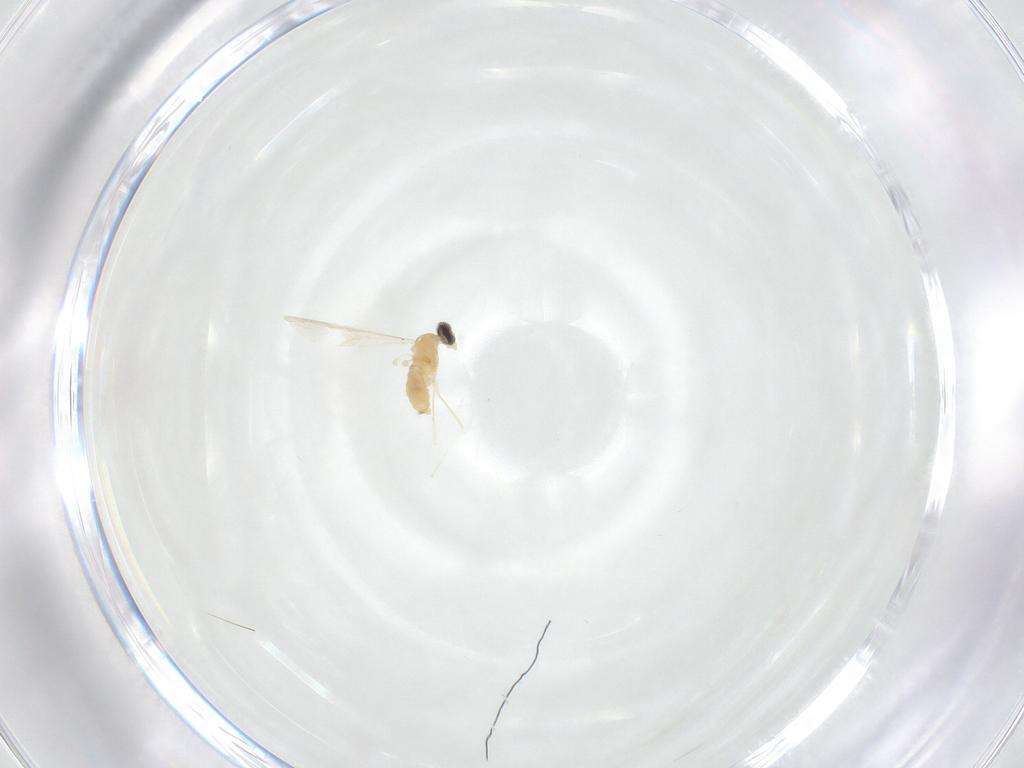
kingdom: Animalia
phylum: Arthropoda
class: Insecta
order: Diptera
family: Cecidomyiidae
